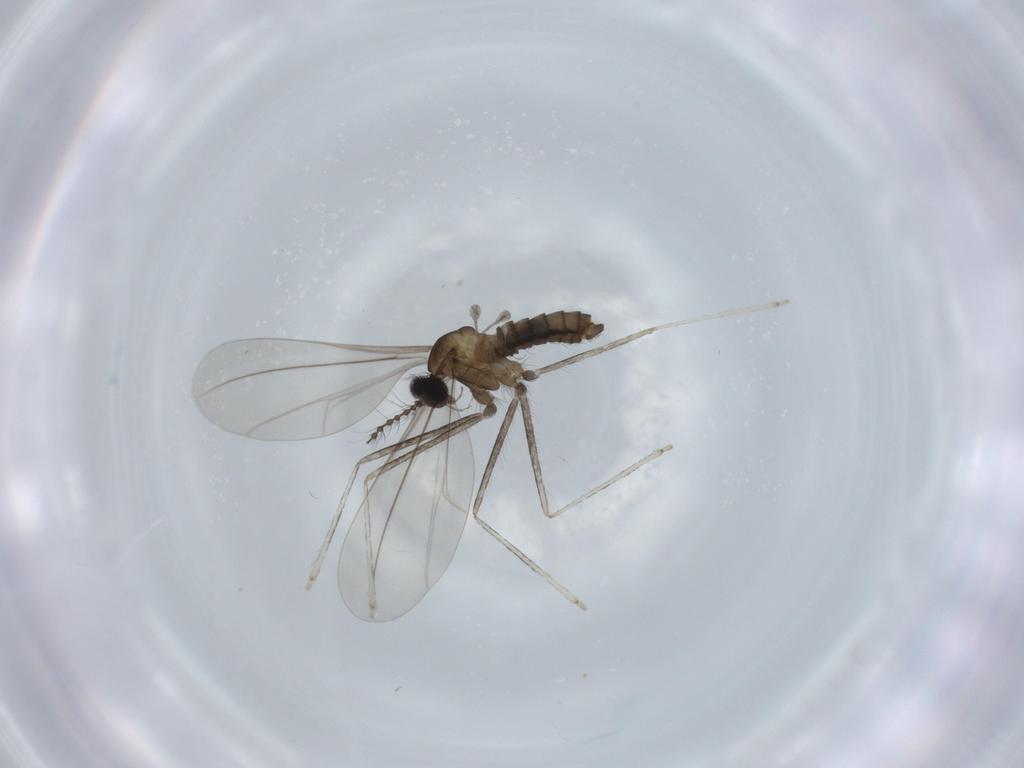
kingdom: Animalia
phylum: Arthropoda
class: Insecta
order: Diptera
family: Cecidomyiidae
